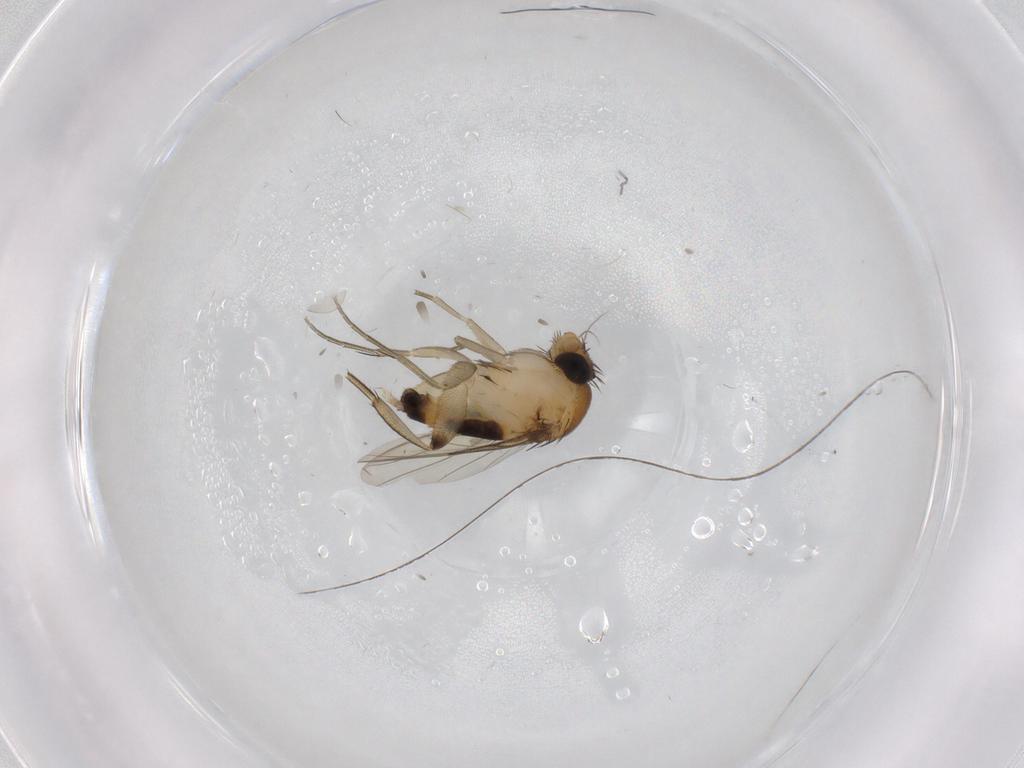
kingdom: Animalia
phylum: Arthropoda
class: Insecta
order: Diptera
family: Phoridae
